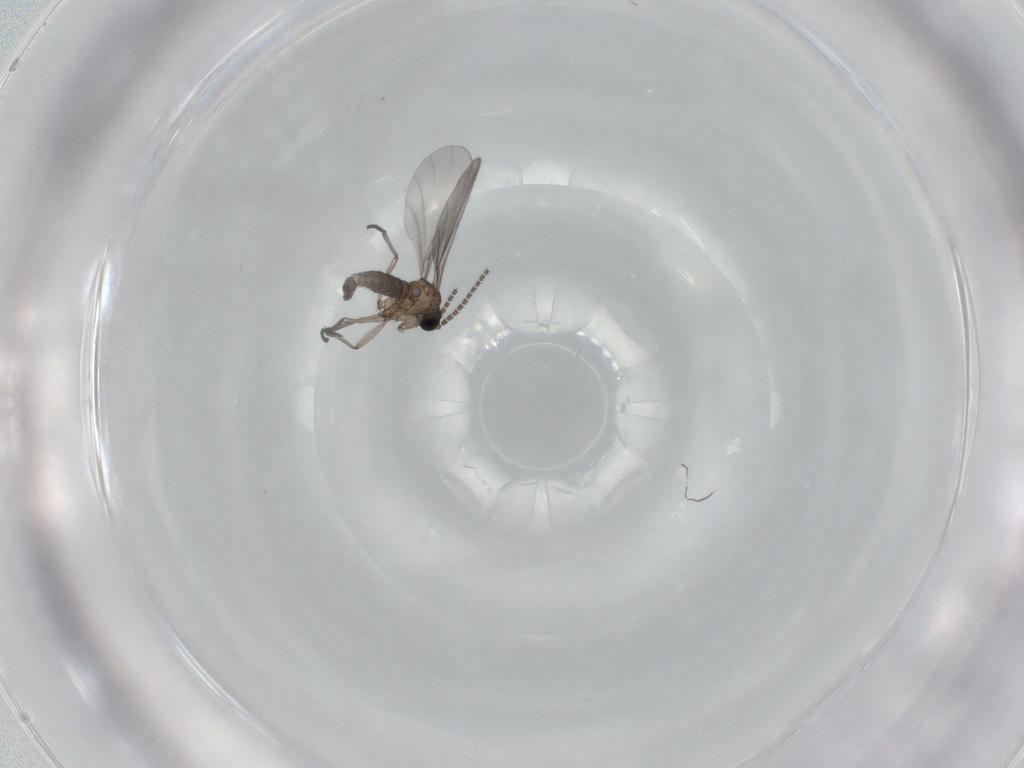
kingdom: Animalia
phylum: Arthropoda
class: Insecta
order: Diptera
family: Sciaridae
